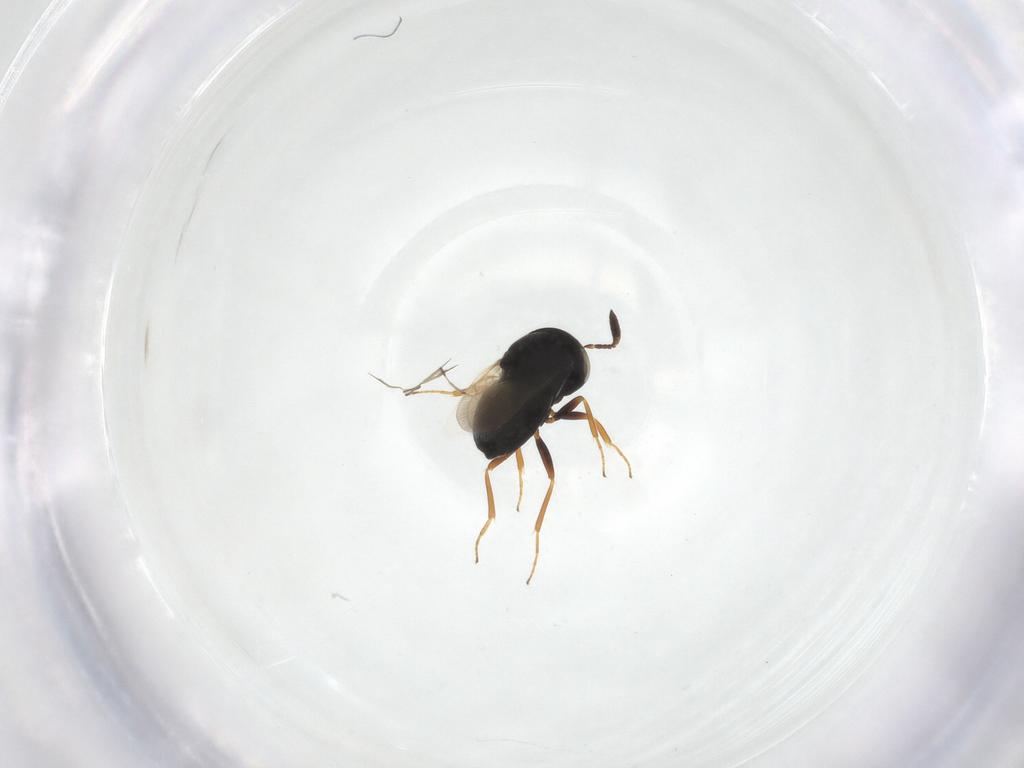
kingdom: Animalia
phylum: Arthropoda
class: Insecta
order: Hymenoptera
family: Scelionidae
